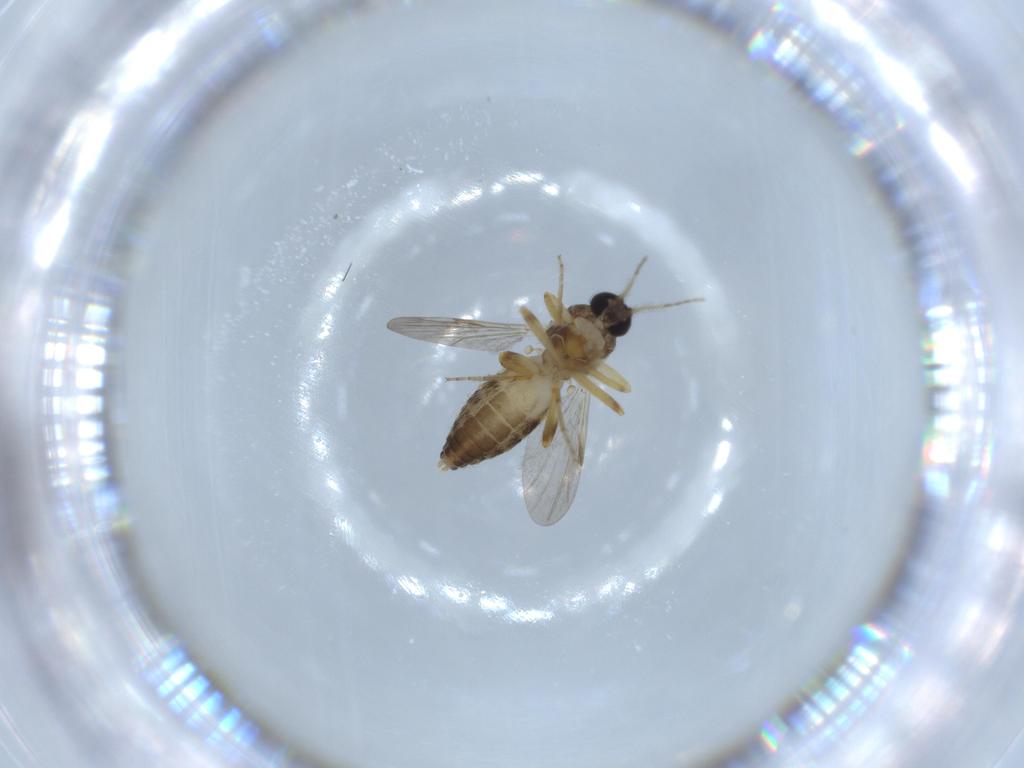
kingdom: Animalia
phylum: Arthropoda
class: Insecta
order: Diptera
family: Ceratopogonidae
